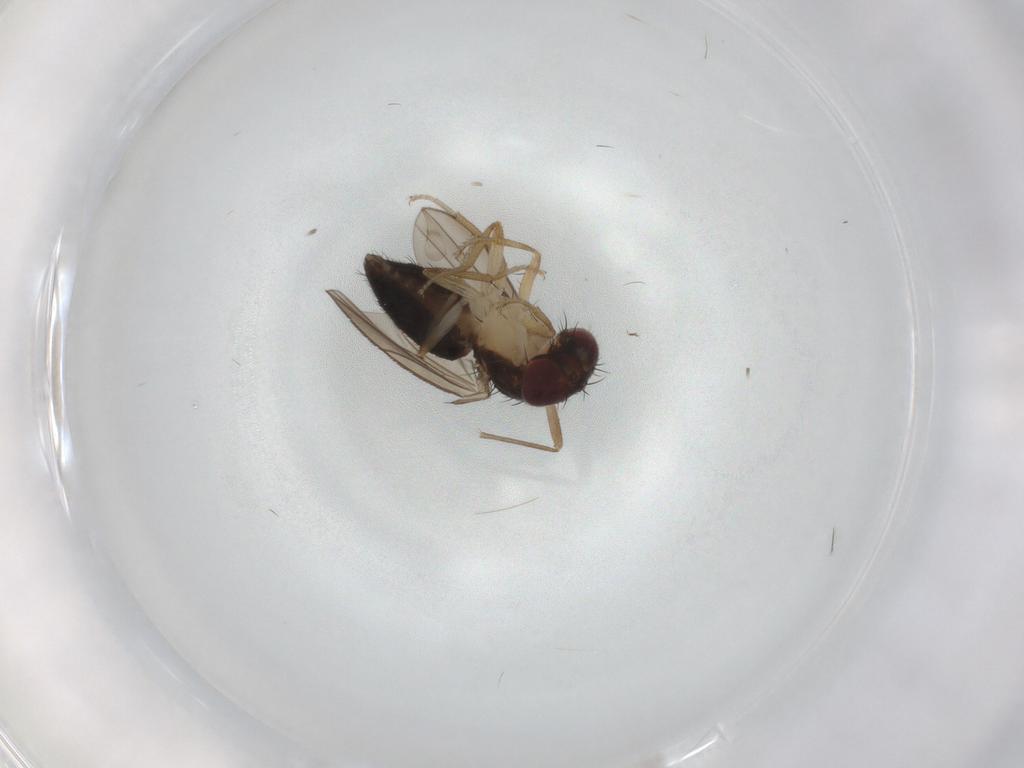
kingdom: Animalia
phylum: Arthropoda
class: Insecta
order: Diptera
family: Drosophilidae
